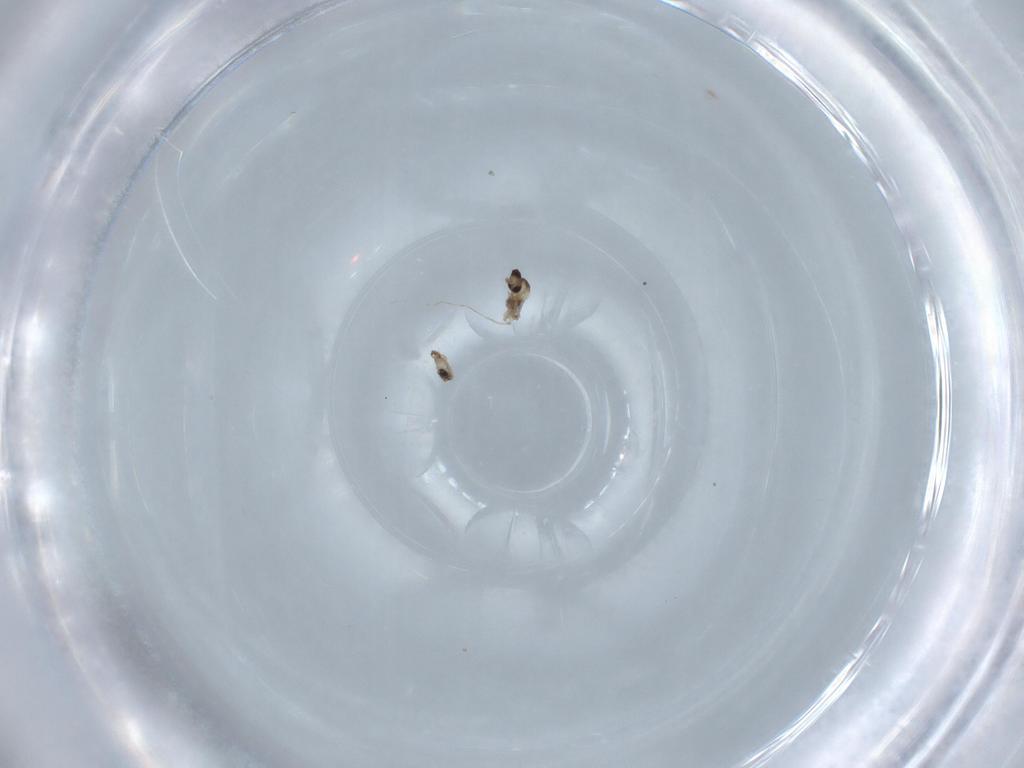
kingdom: Animalia
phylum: Arthropoda
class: Insecta
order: Diptera
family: Cecidomyiidae
